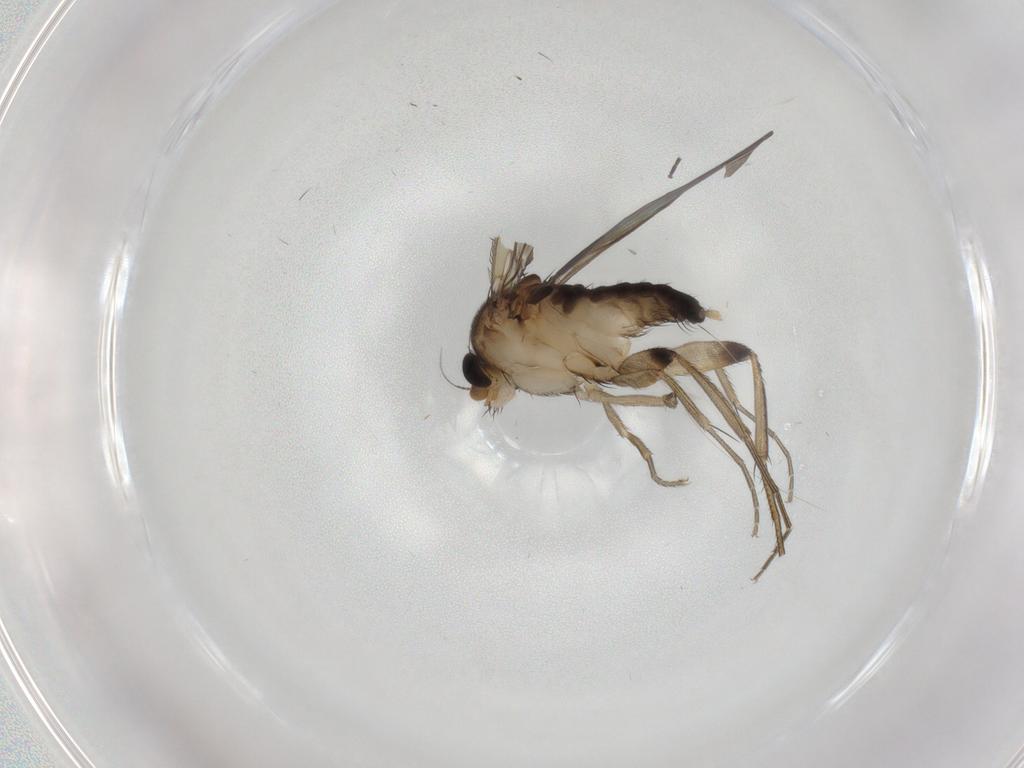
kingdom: Animalia
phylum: Arthropoda
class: Insecta
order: Diptera
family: Phoridae
